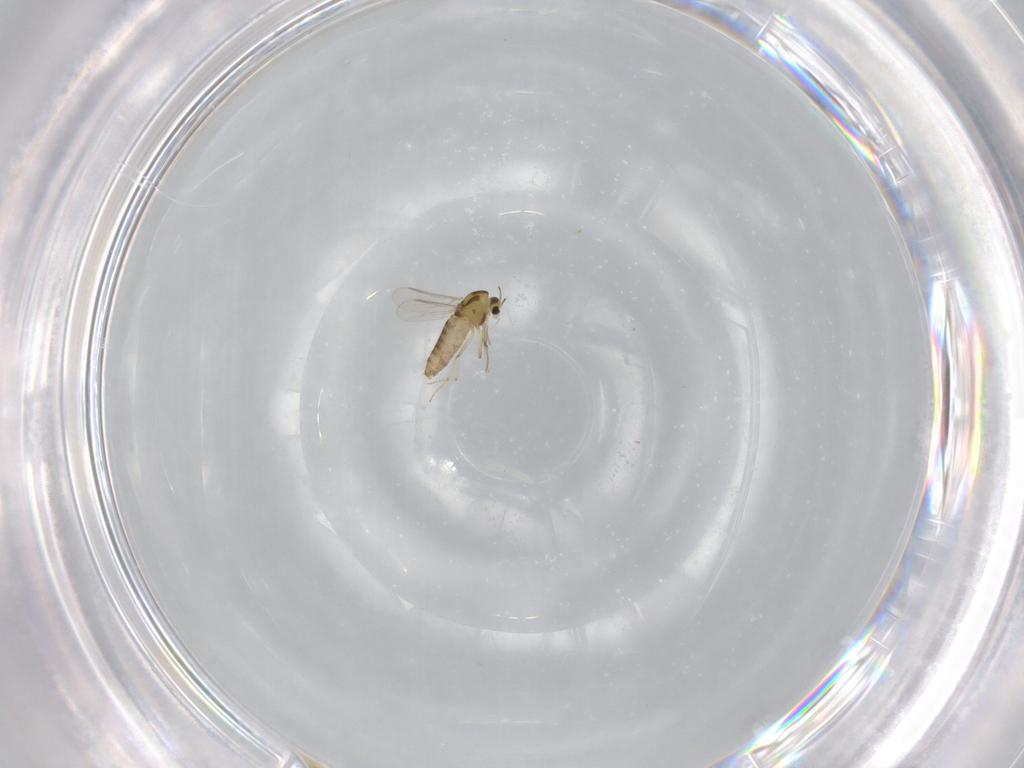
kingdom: Animalia
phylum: Arthropoda
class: Insecta
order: Diptera
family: Chironomidae
